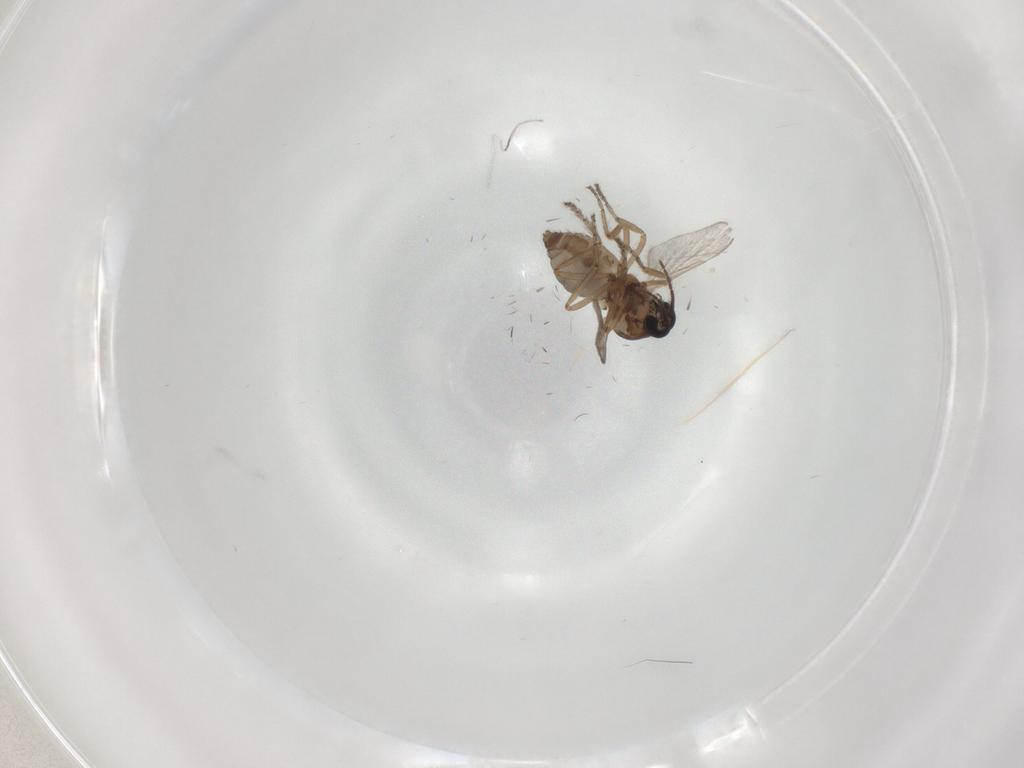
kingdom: Animalia
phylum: Arthropoda
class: Insecta
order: Diptera
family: Ceratopogonidae
